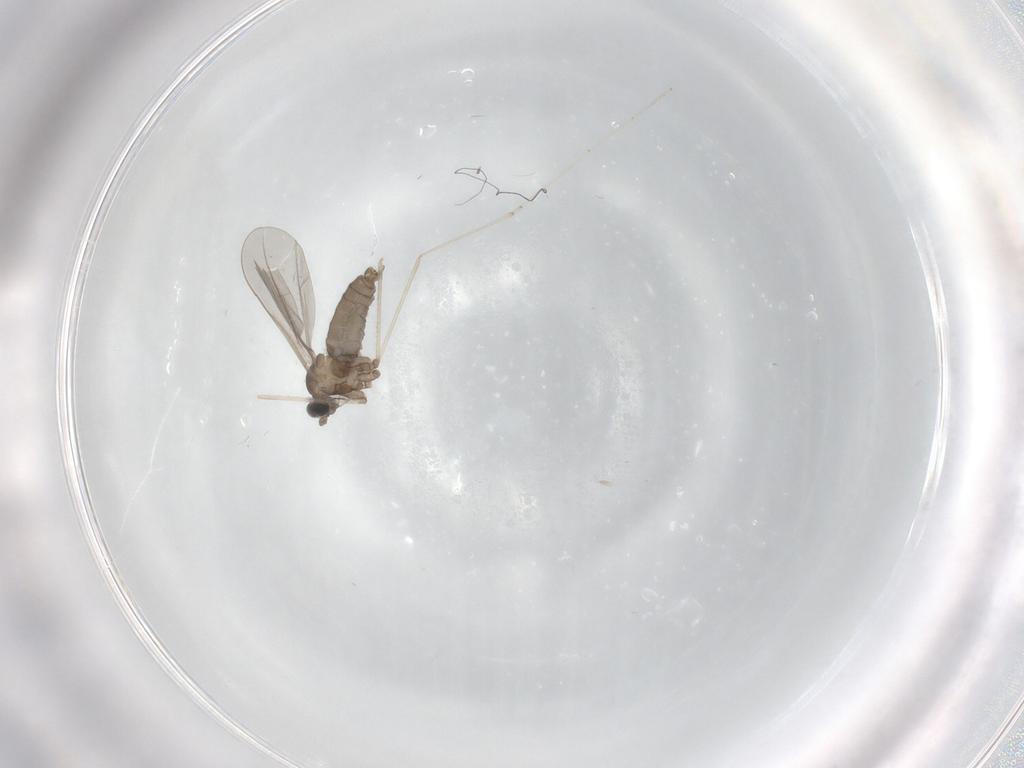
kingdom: Animalia
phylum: Arthropoda
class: Insecta
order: Diptera
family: Cecidomyiidae
